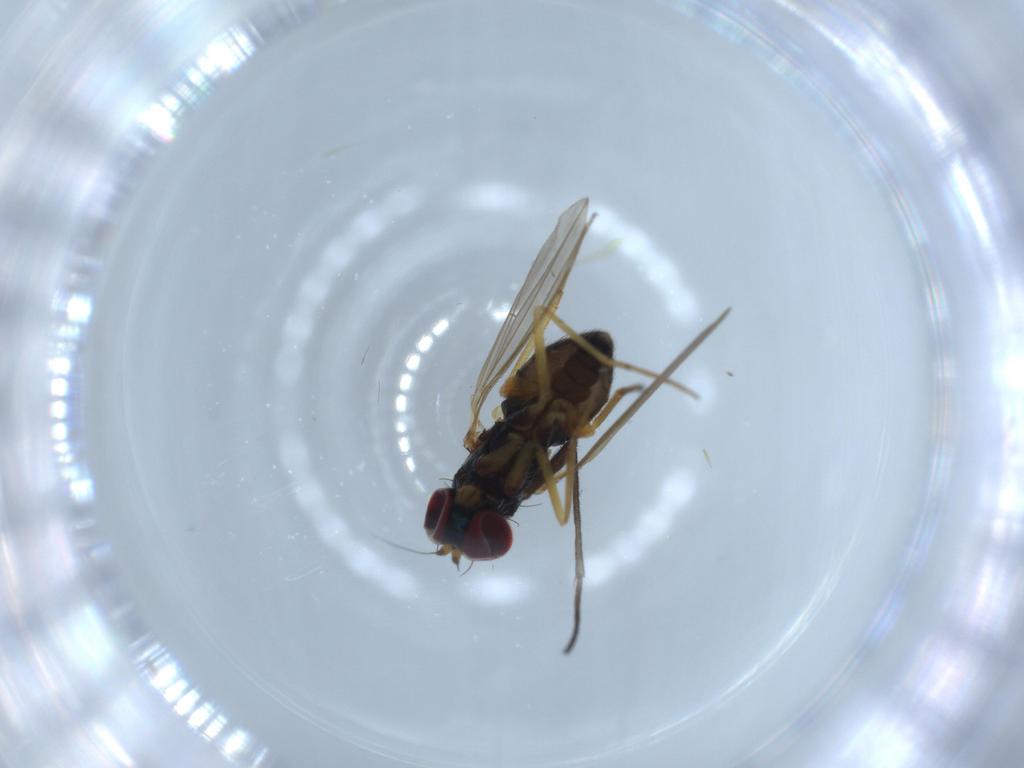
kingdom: Animalia
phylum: Arthropoda
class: Insecta
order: Diptera
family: Dolichopodidae
